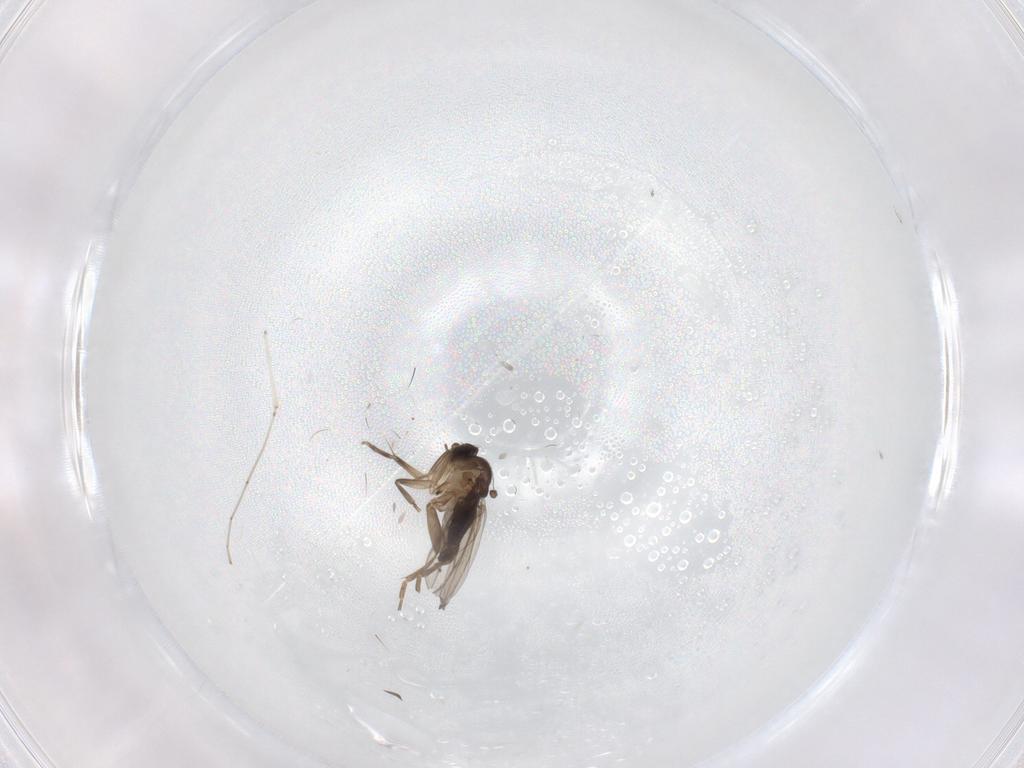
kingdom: Animalia
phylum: Arthropoda
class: Insecta
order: Diptera
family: Phoridae
